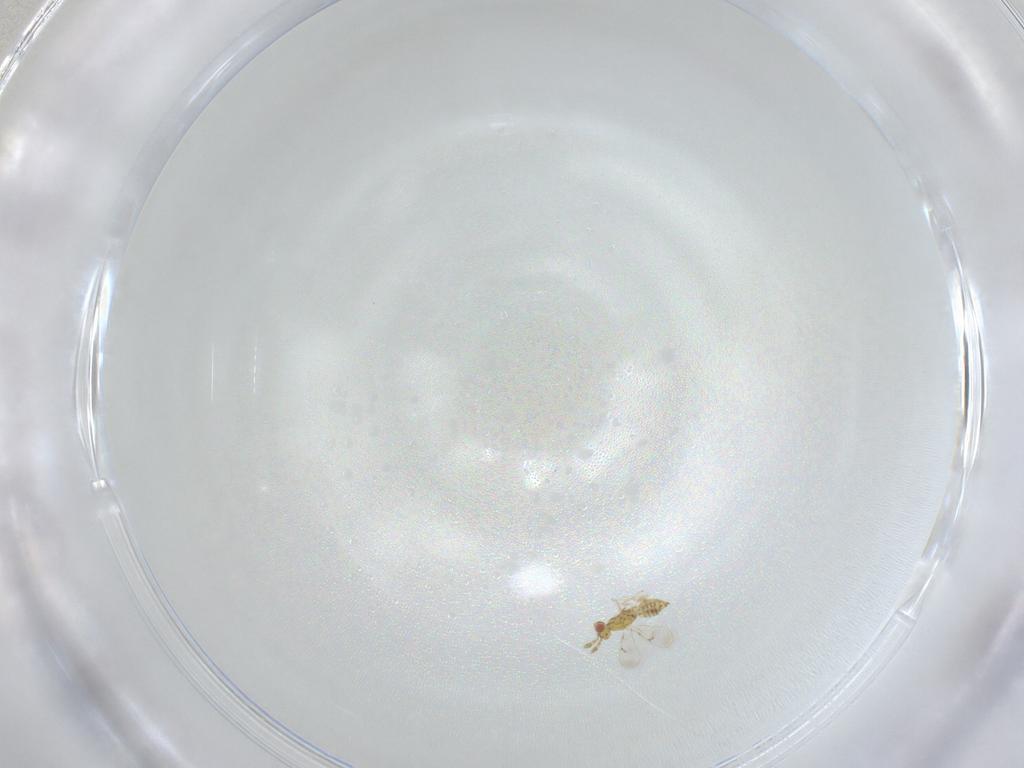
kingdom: Animalia
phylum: Arthropoda
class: Insecta
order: Hymenoptera
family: Eulophidae
